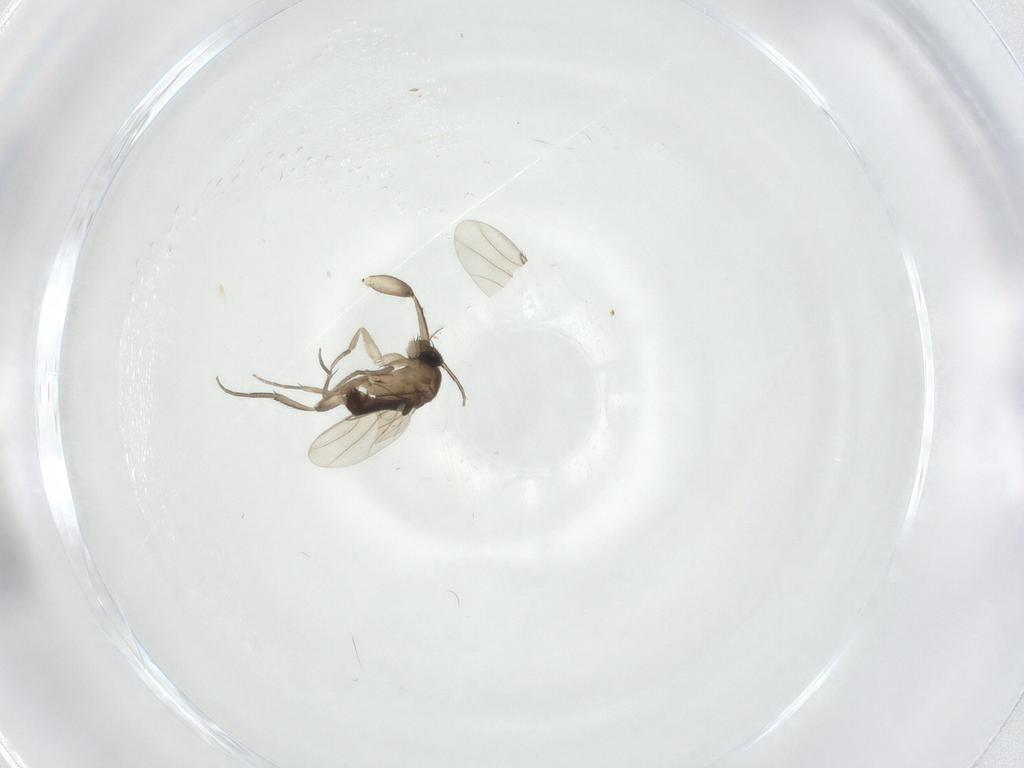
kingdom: Animalia
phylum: Arthropoda
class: Insecta
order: Diptera
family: Phoridae
